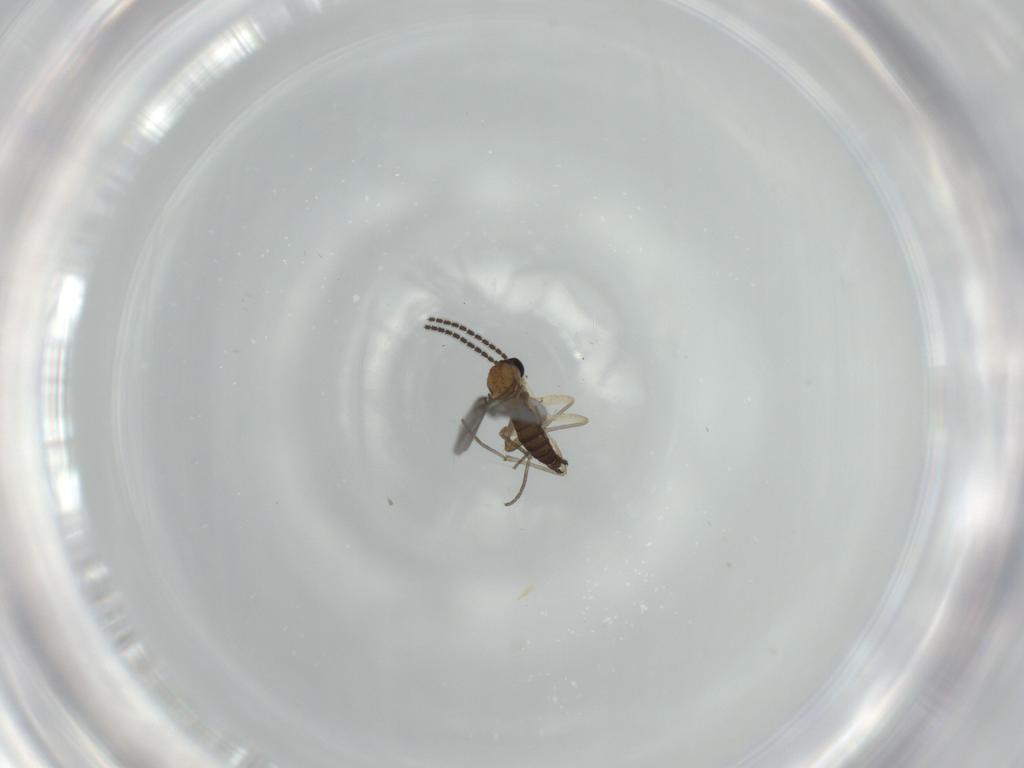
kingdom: Animalia
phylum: Arthropoda
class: Insecta
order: Diptera
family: Sciaridae
